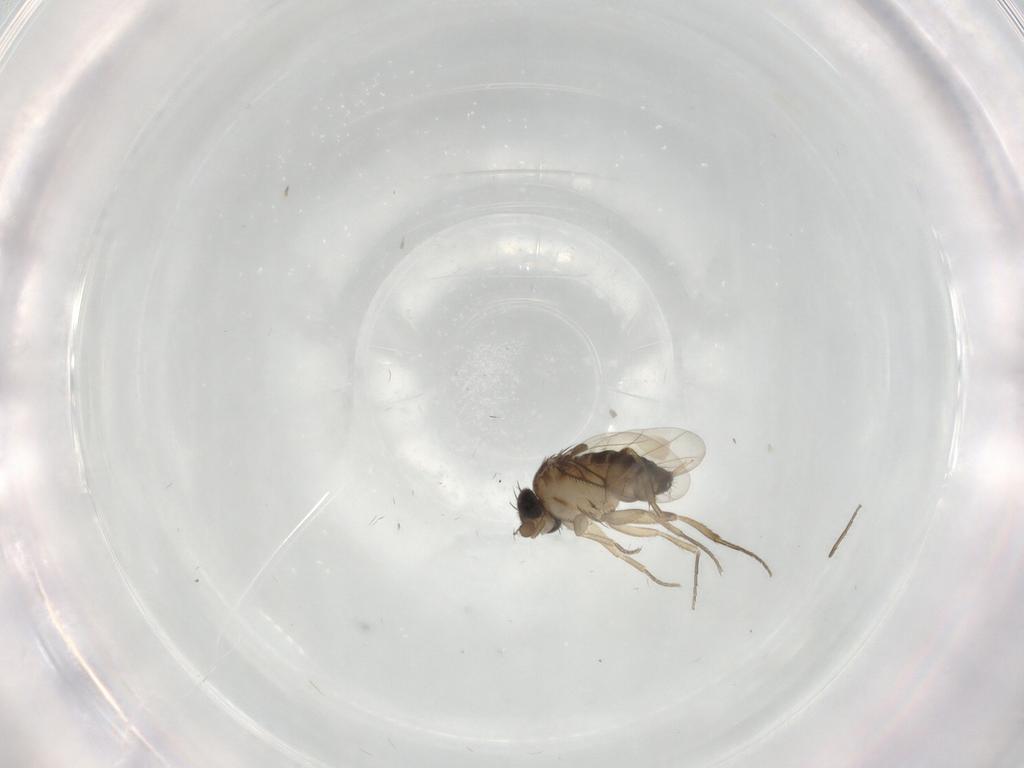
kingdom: Animalia
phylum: Arthropoda
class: Insecta
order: Diptera
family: Phoridae
